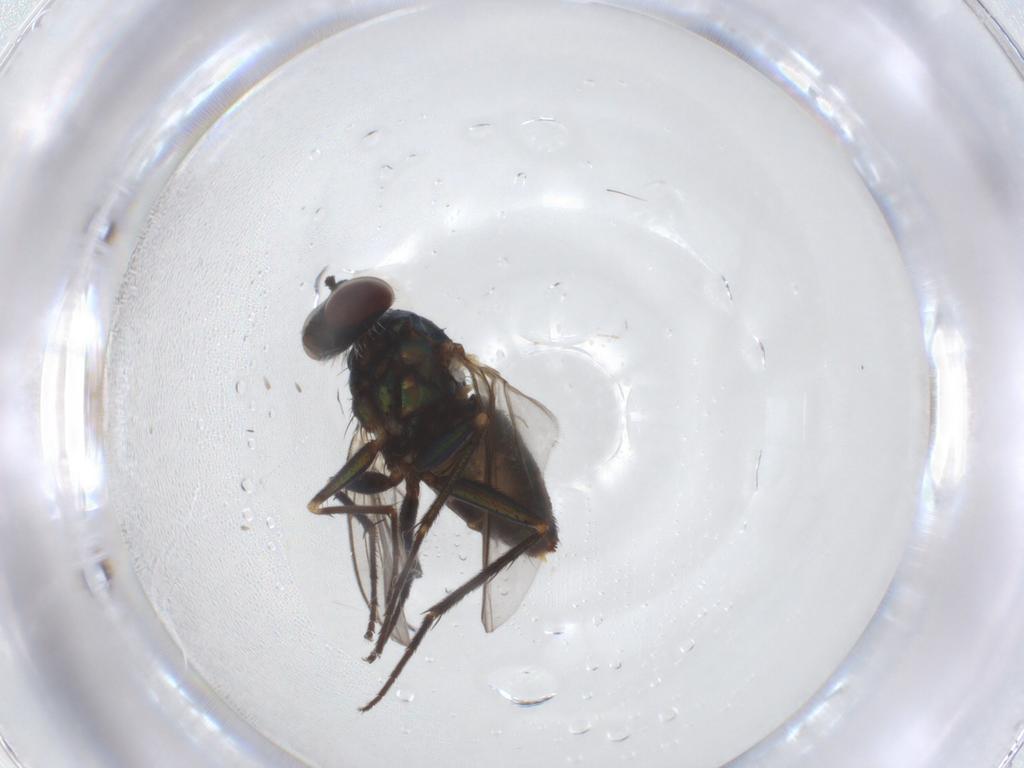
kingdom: Animalia
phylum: Arthropoda
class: Insecta
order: Diptera
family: Dolichopodidae
